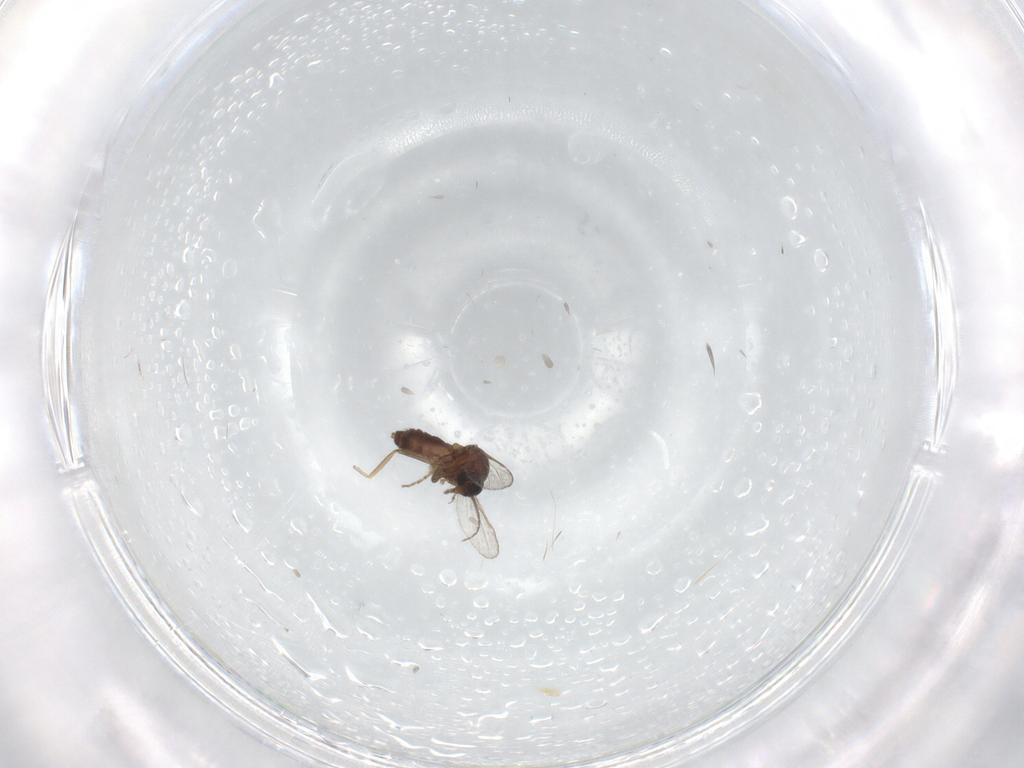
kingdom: Animalia
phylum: Arthropoda
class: Insecta
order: Diptera
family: Ceratopogonidae
